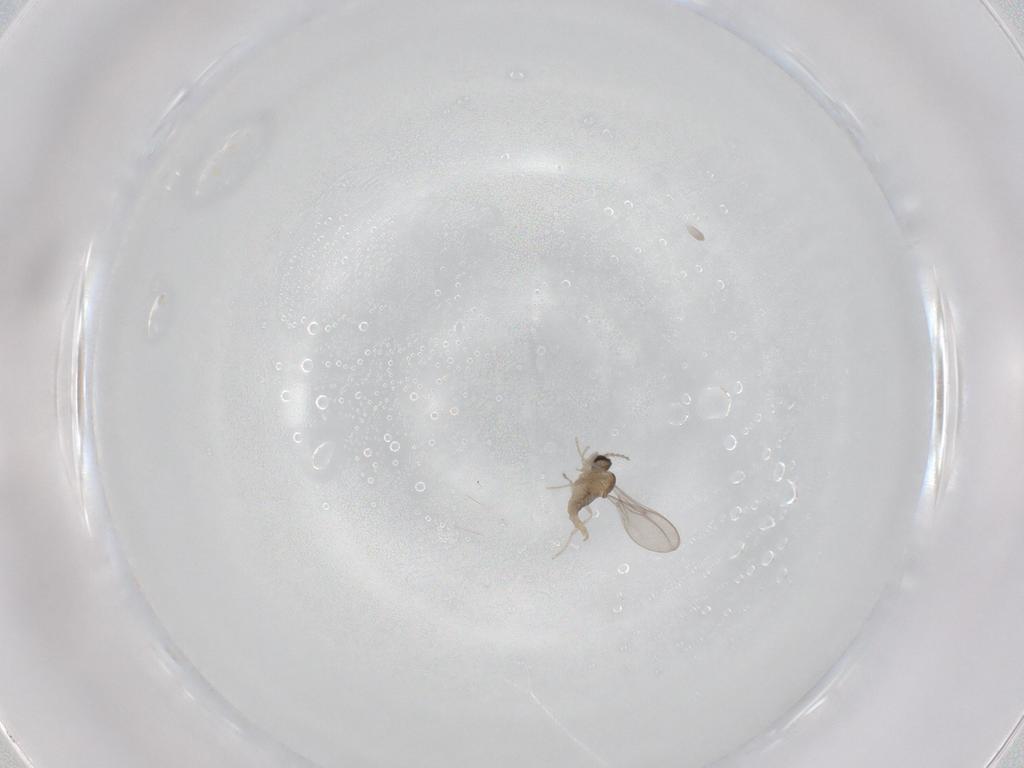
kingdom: Animalia
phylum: Arthropoda
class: Insecta
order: Diptera
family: Cecidomyiidae
